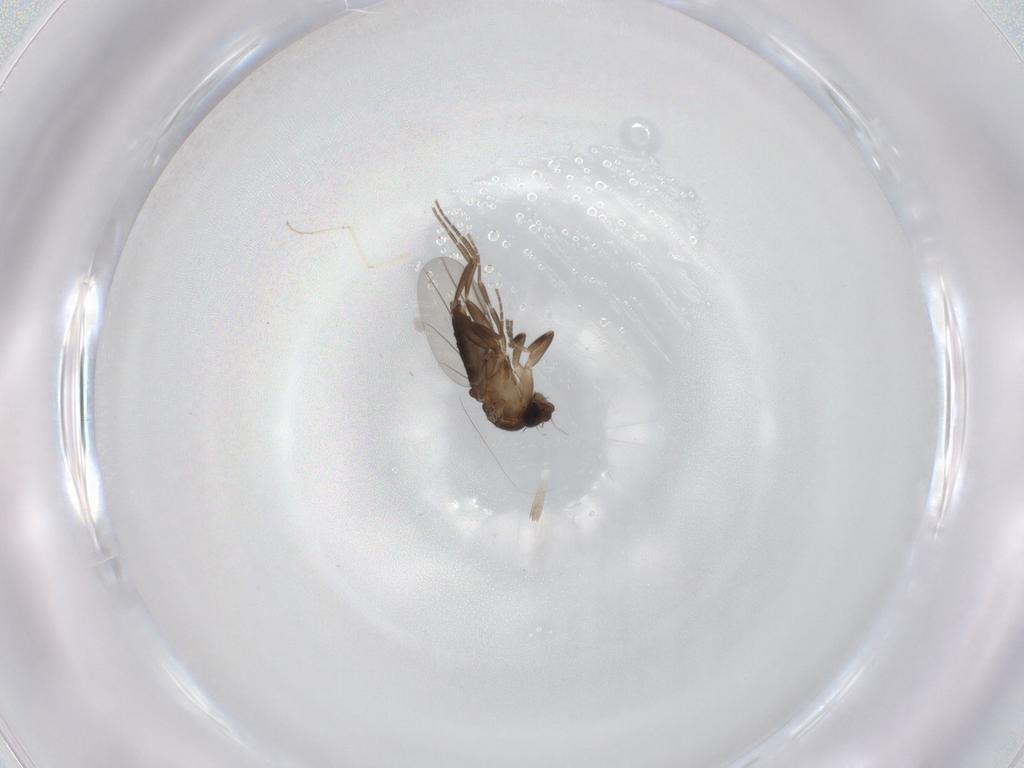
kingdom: Animalia
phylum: Arthropoda
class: Insecta
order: Diptera
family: Cecidomyiidae
